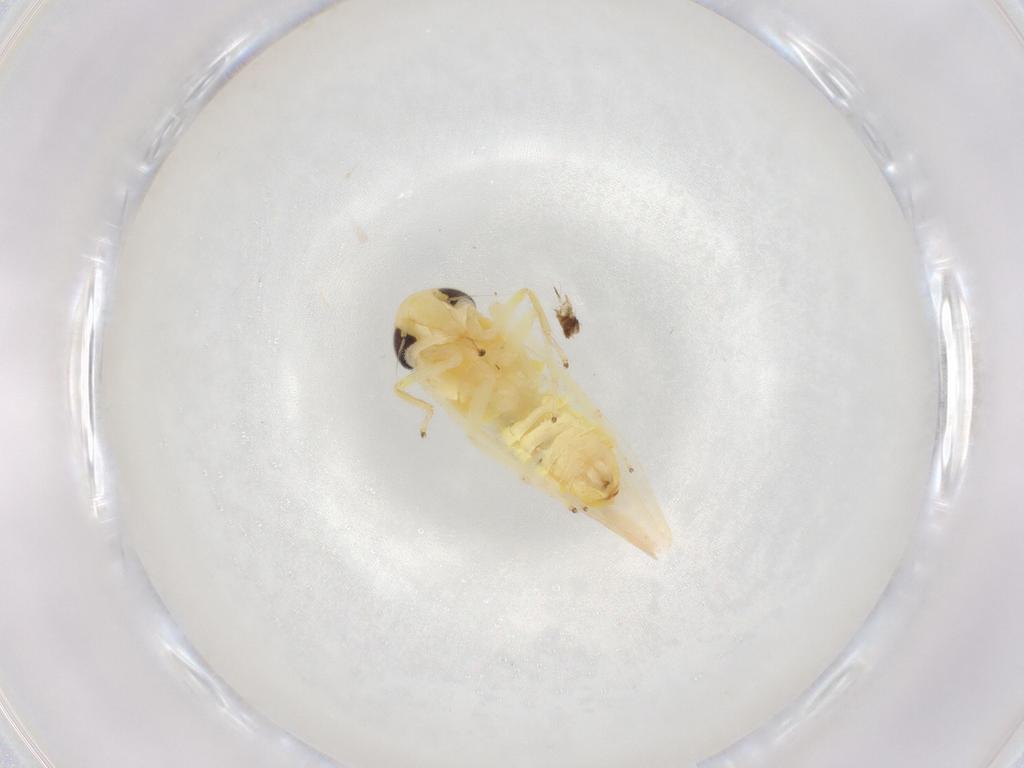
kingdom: Animalia
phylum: Arthropoda
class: Insecta
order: Hemiptera
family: Cicadellidae
